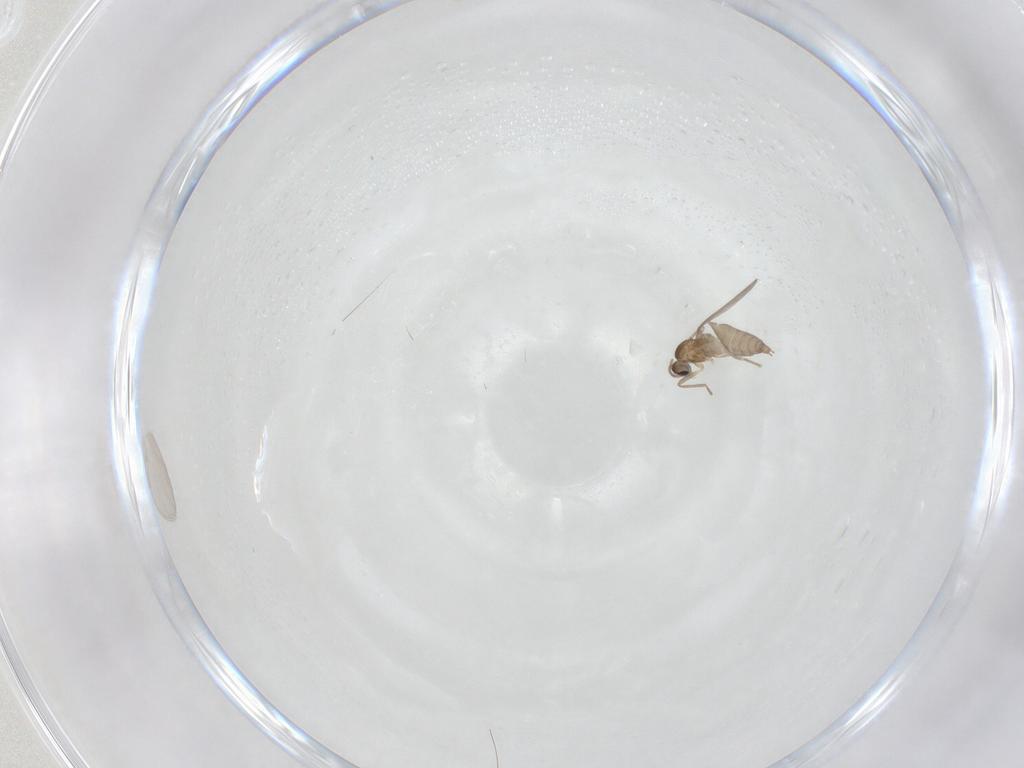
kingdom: Animalia
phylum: Arthropoda
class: Insecta
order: Diptera
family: Cecidomyiidae
